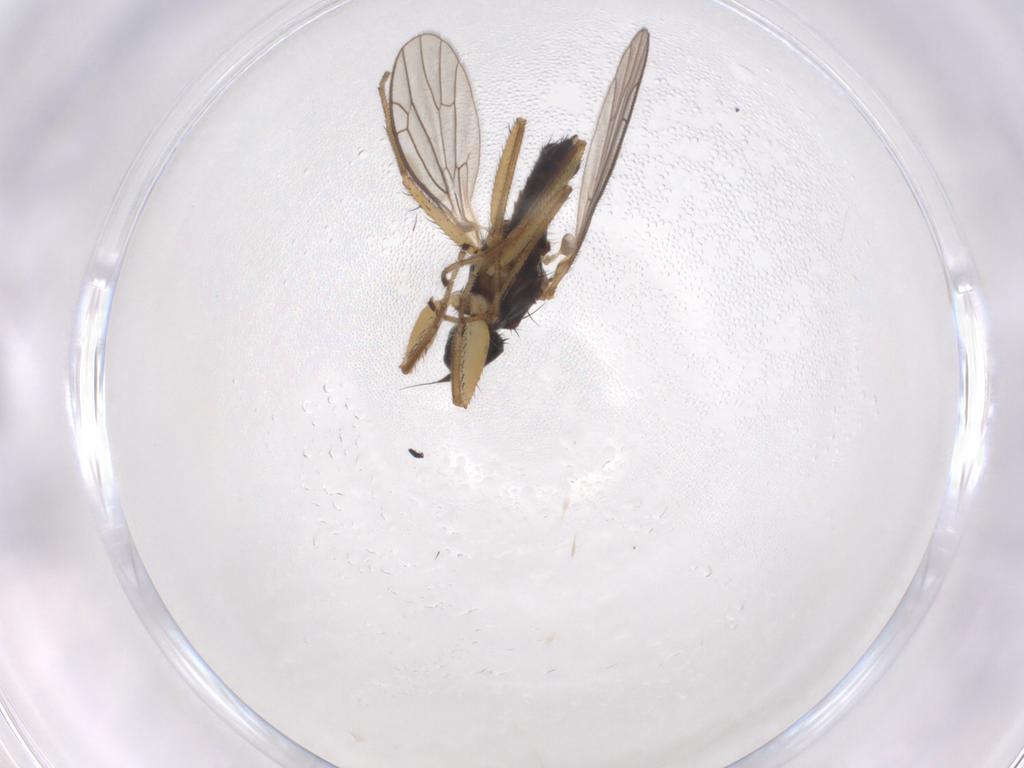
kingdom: Animalia
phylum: Arthropoda
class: Insecta
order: Diptera
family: Empididae
